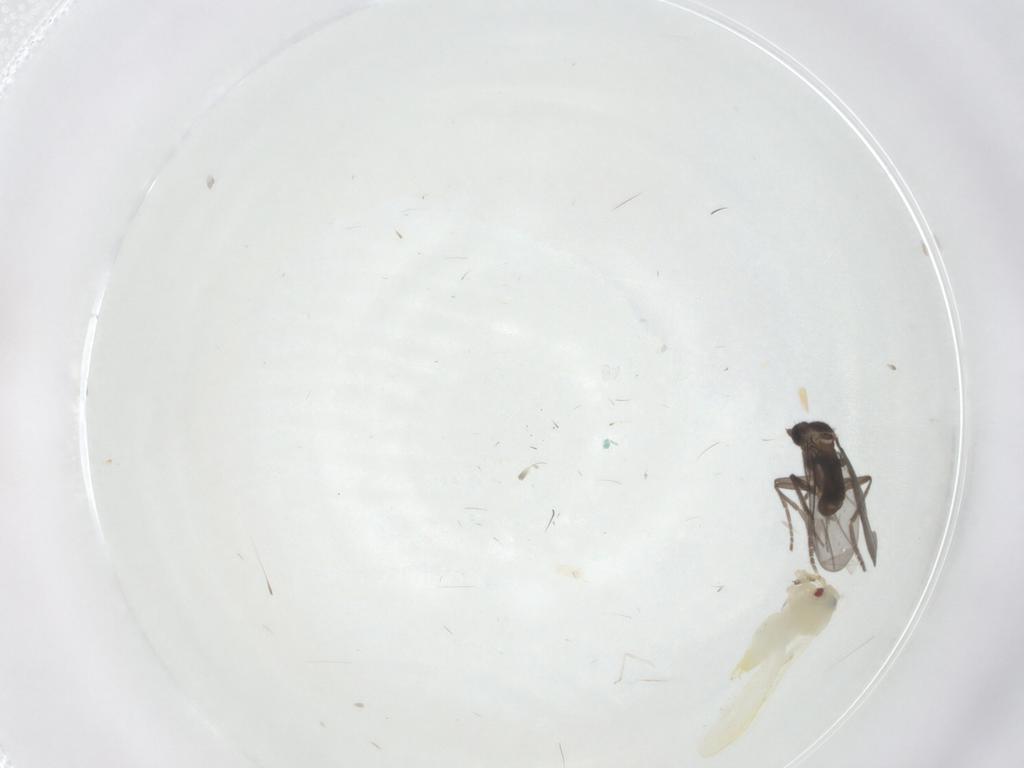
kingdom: Animalia
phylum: Arthropoda
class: Insecta
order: Diptera
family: Phoridae
